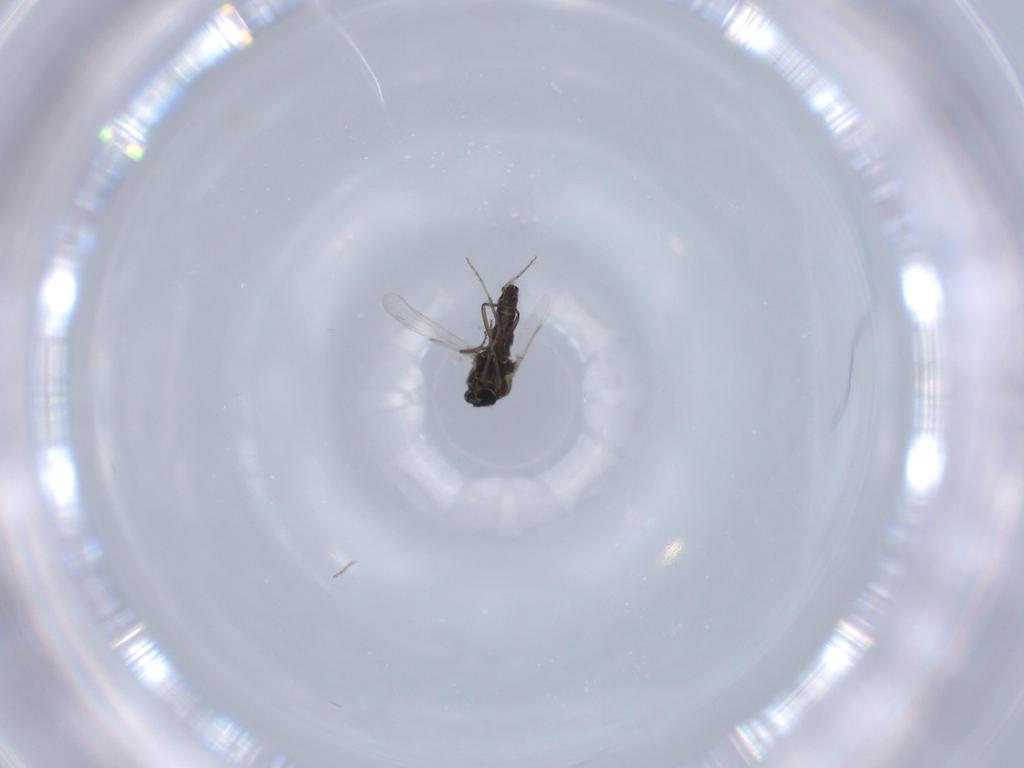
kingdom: Animalia
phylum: Arthropoda
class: Insecta
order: Diptera
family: Ceratopogonidae
